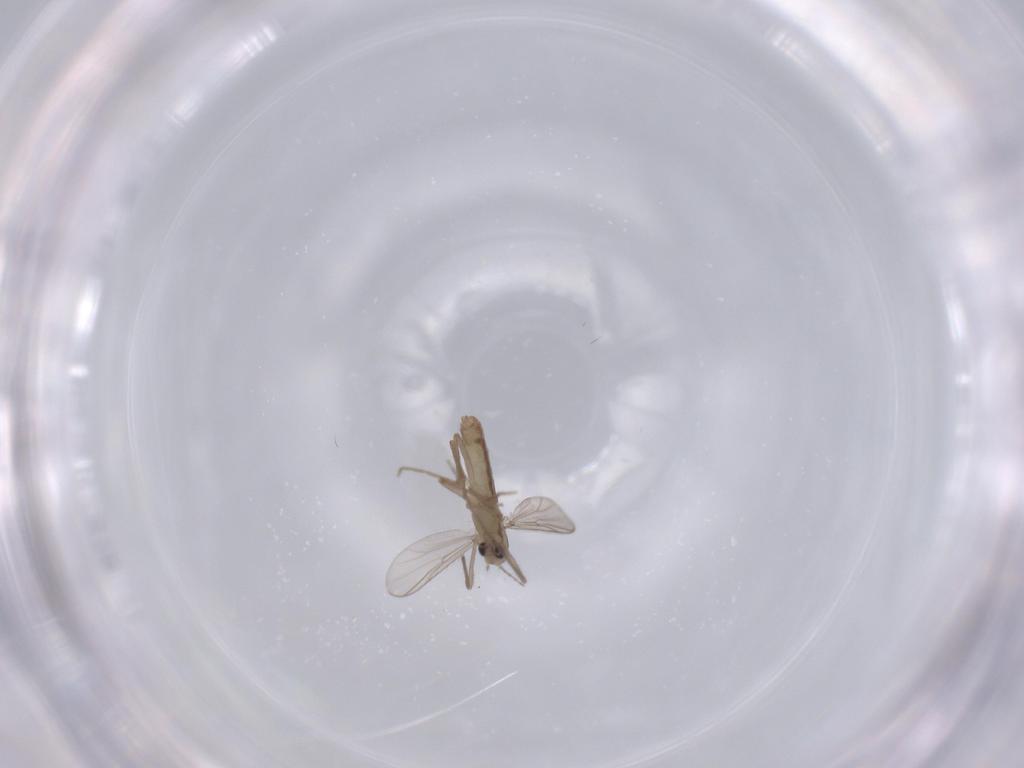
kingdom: Animalia
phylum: Arthropoda
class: Insecta
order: Diptera
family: Chironomidae
